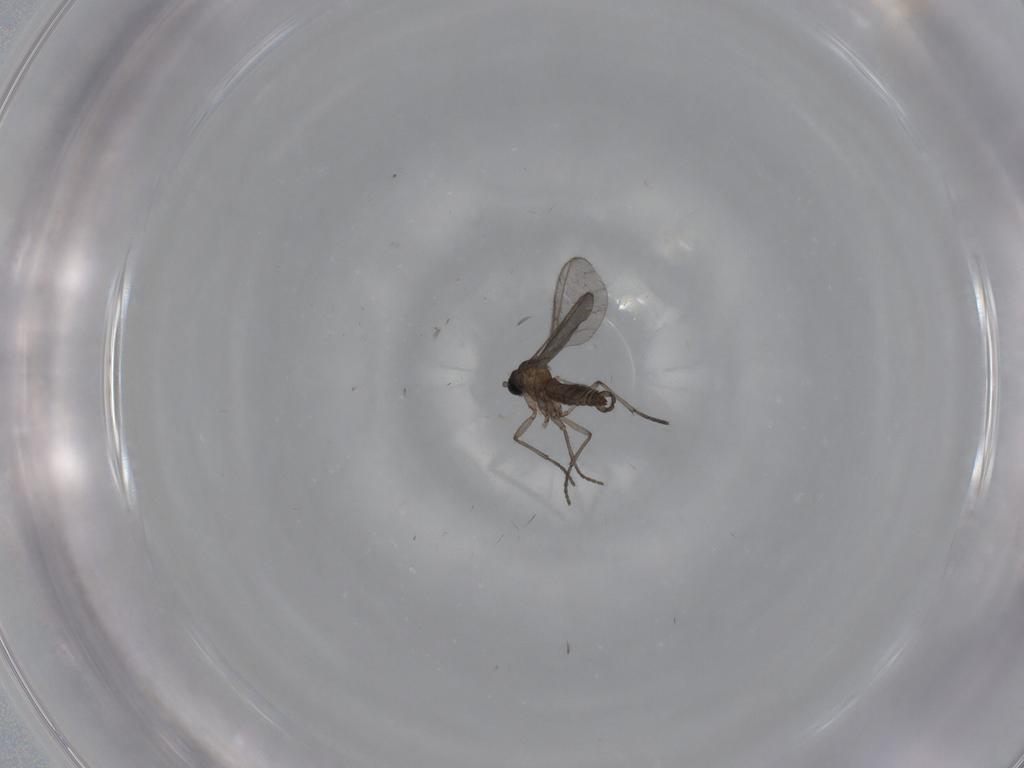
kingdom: Animalia
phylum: Arthropoda
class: Insecta
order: Diptera
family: Sciaridae
